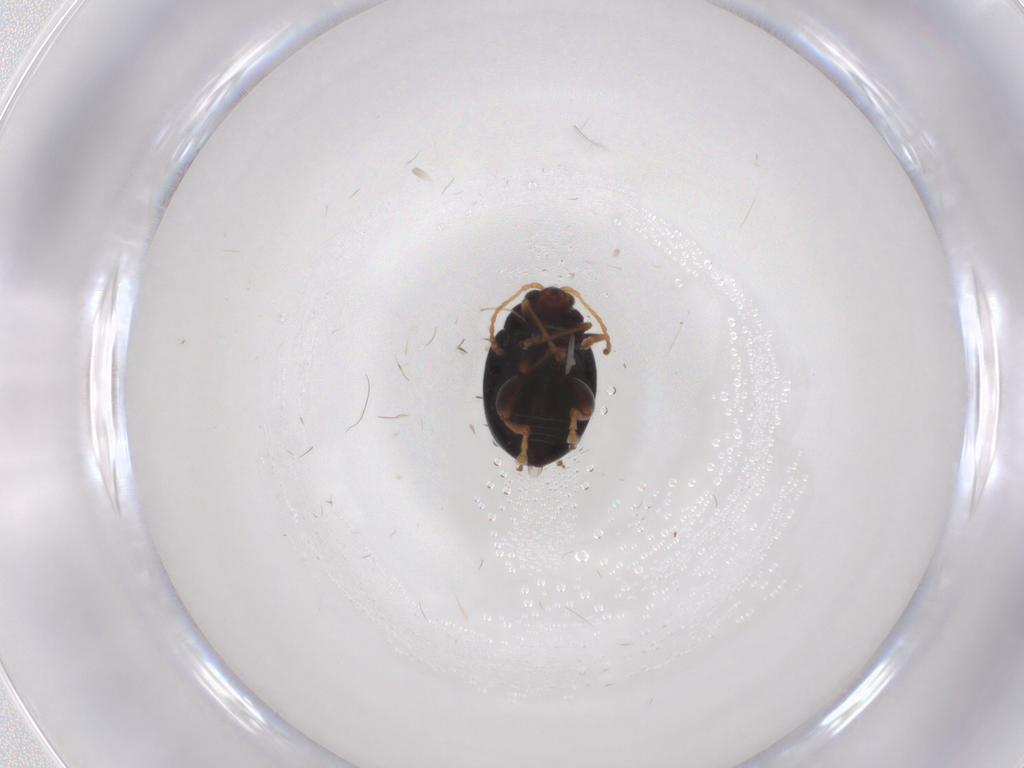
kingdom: Animalia
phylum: Arthropoda
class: Insecta
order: Coleoptera
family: Chrysomelidae
